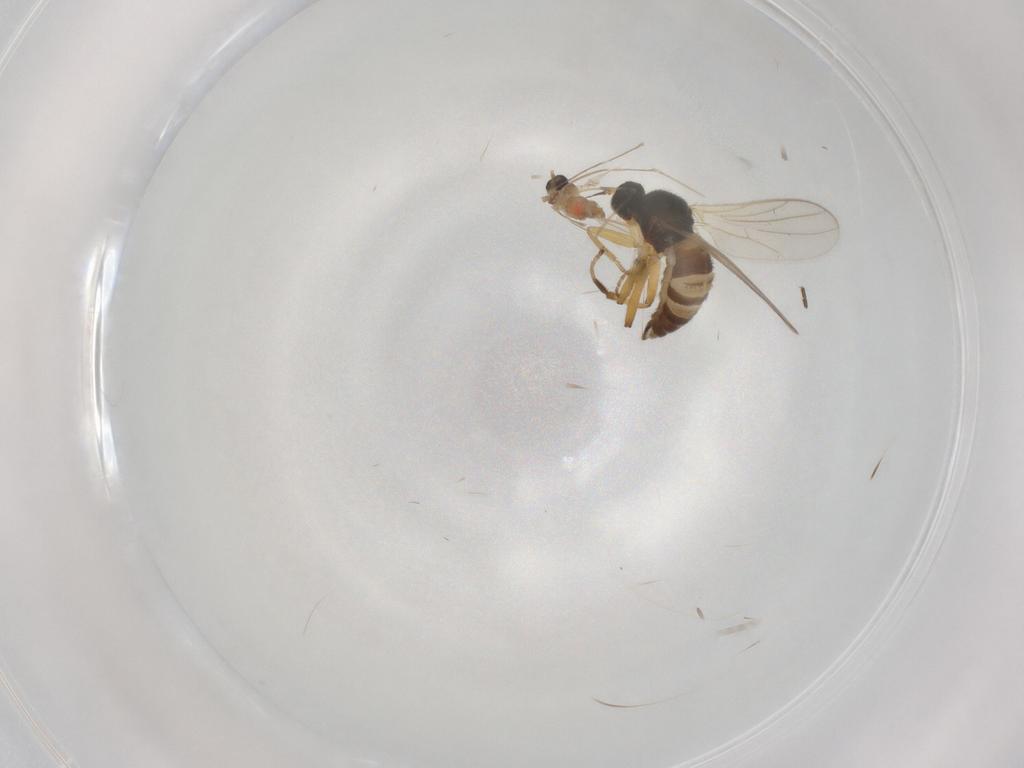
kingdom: Animalia
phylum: Arthropoda
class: Insecta
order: Diptera
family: Hybotidae
